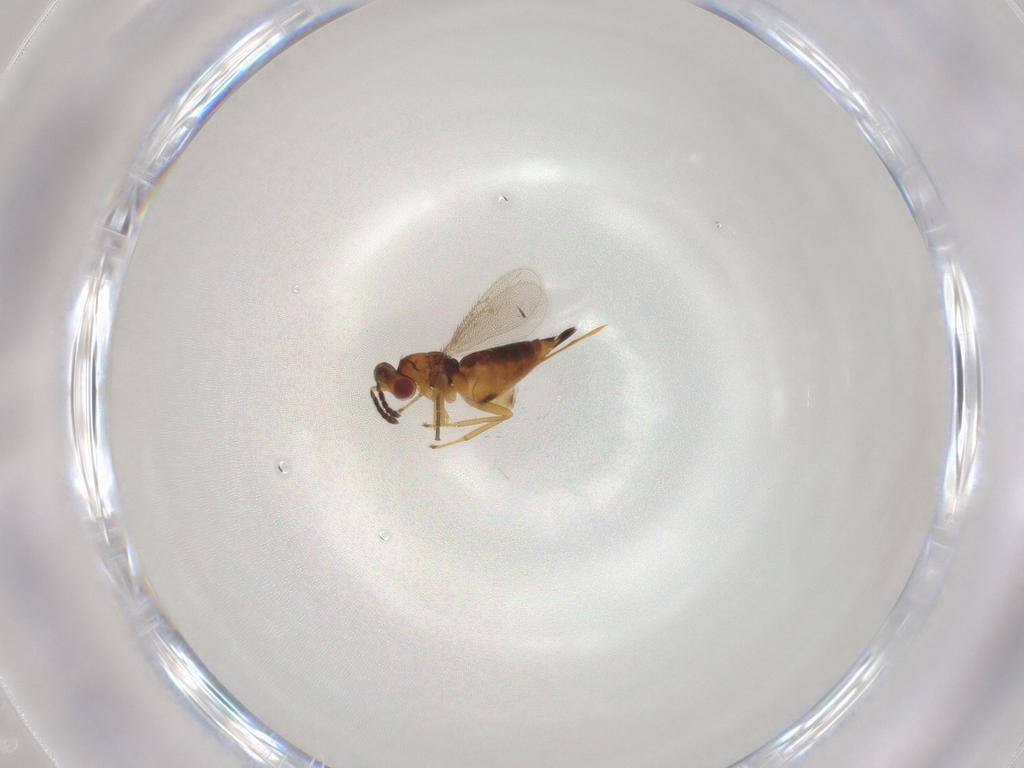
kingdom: Animalia
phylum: Arthropoda
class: Insecta
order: Hymenoptera
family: Eulophidae
